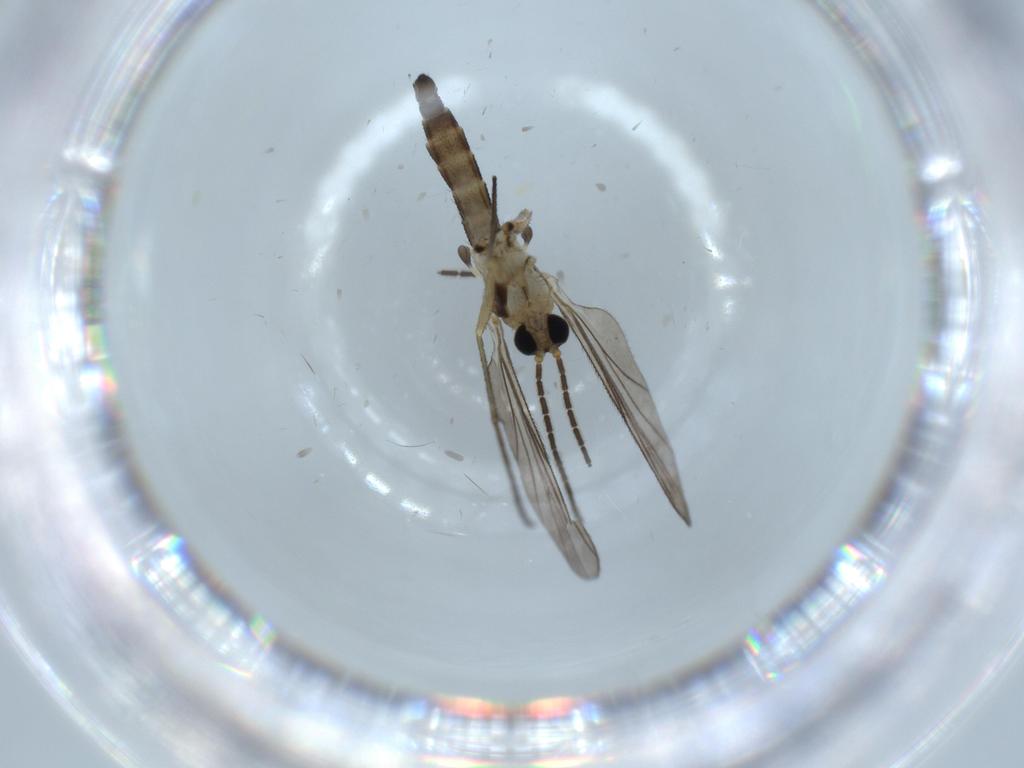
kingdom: Animalia
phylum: Arthropoda
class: Insecta
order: Diptera
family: Sciaridae
